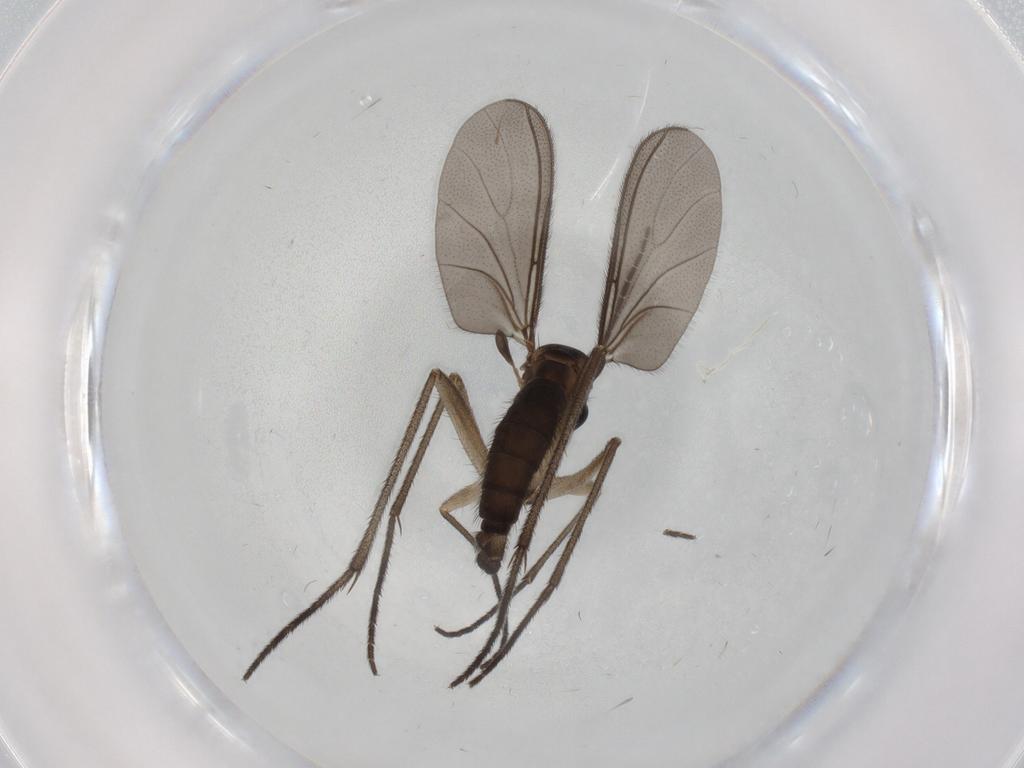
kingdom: Animalia
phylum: Arthropoda
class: Insecta
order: Diptera
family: Sciaridae
